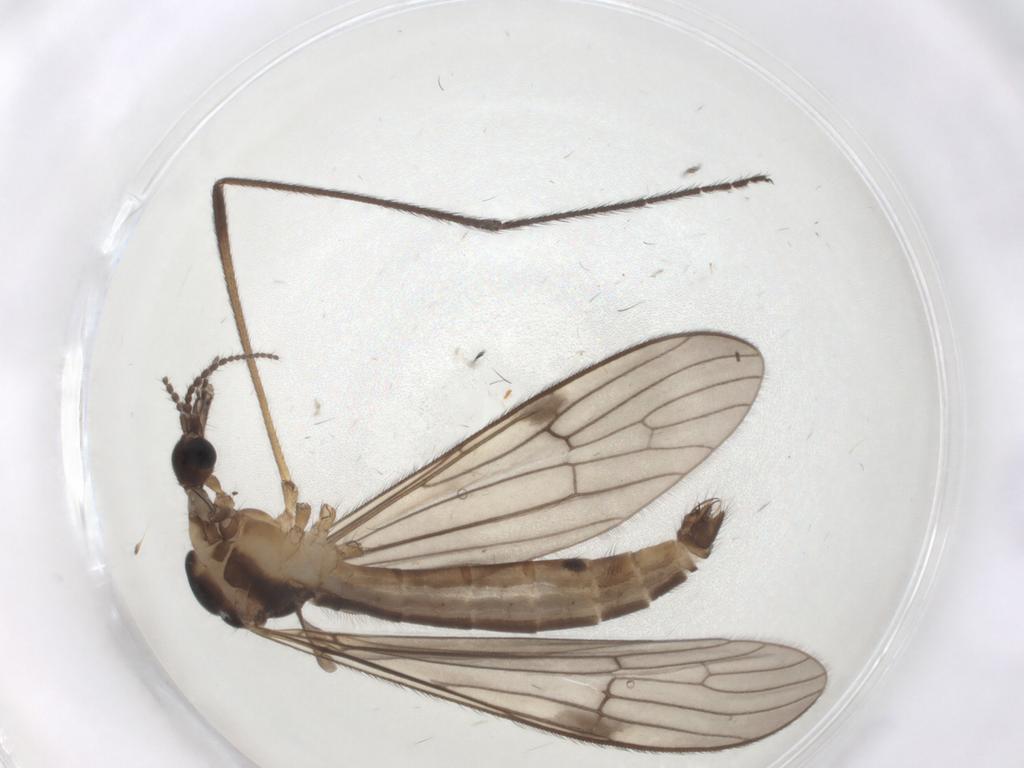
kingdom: Animalia
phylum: Arthropoda
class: Insecta
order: Diptera
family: Limoniidae
